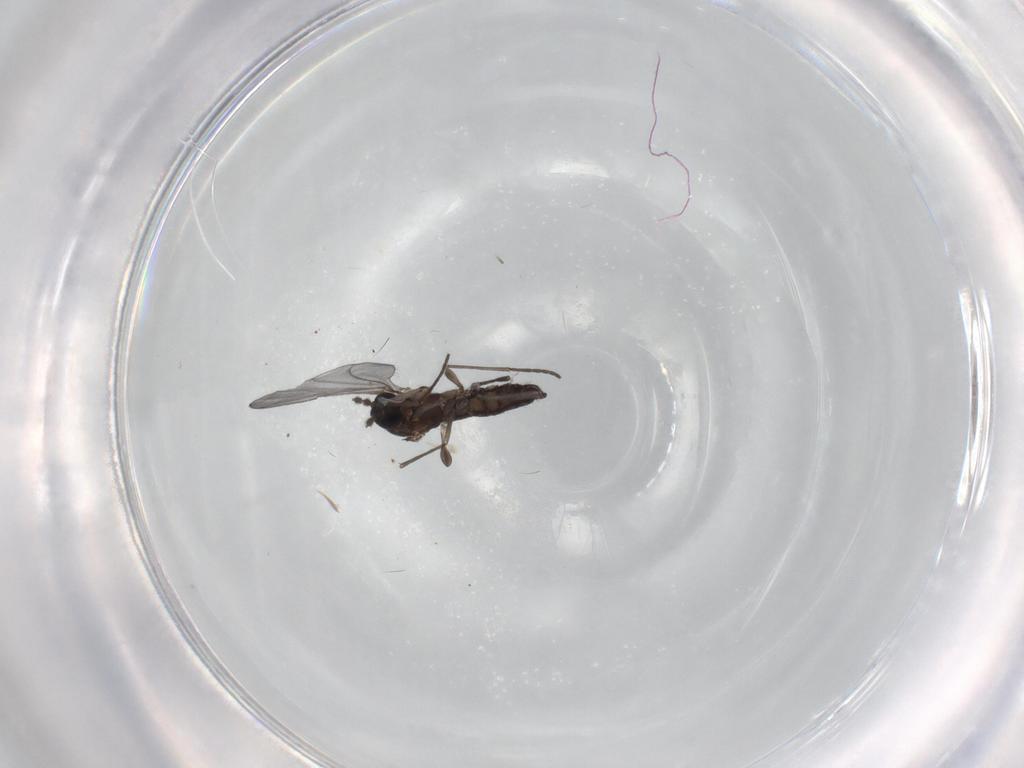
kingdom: Animalia
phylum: Arthropoda
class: Insecta
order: Diptera
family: Sciaridae
